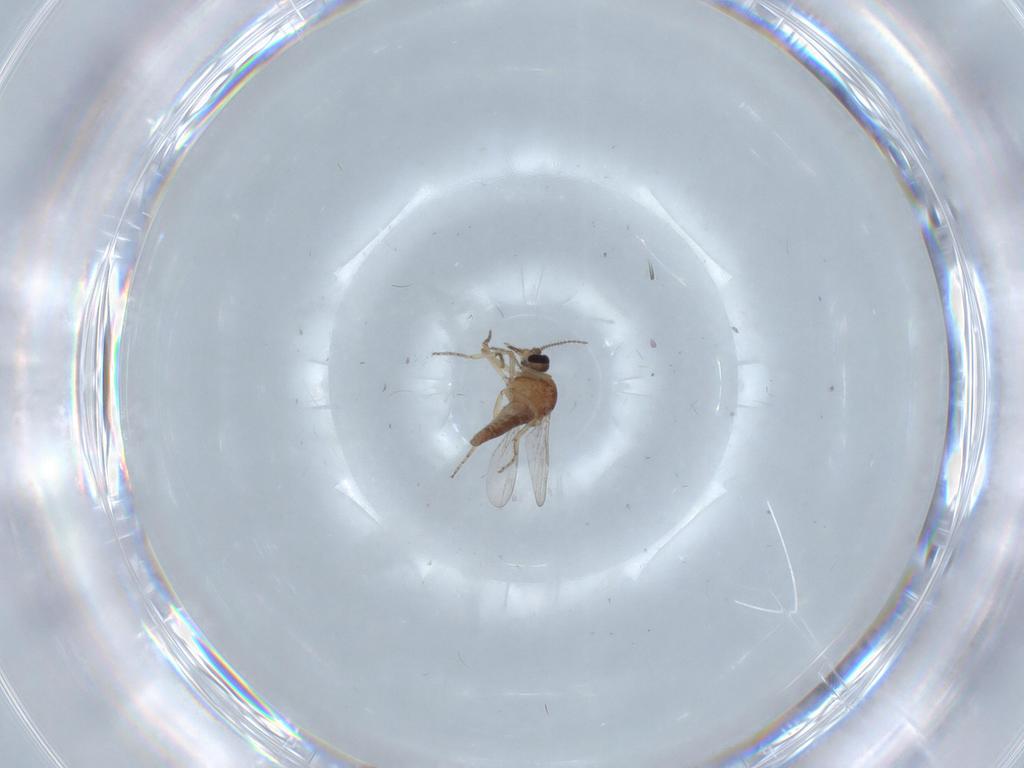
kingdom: Animalia
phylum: Arthropoda
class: Insecta
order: Diptera
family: Ceratopogonidae
